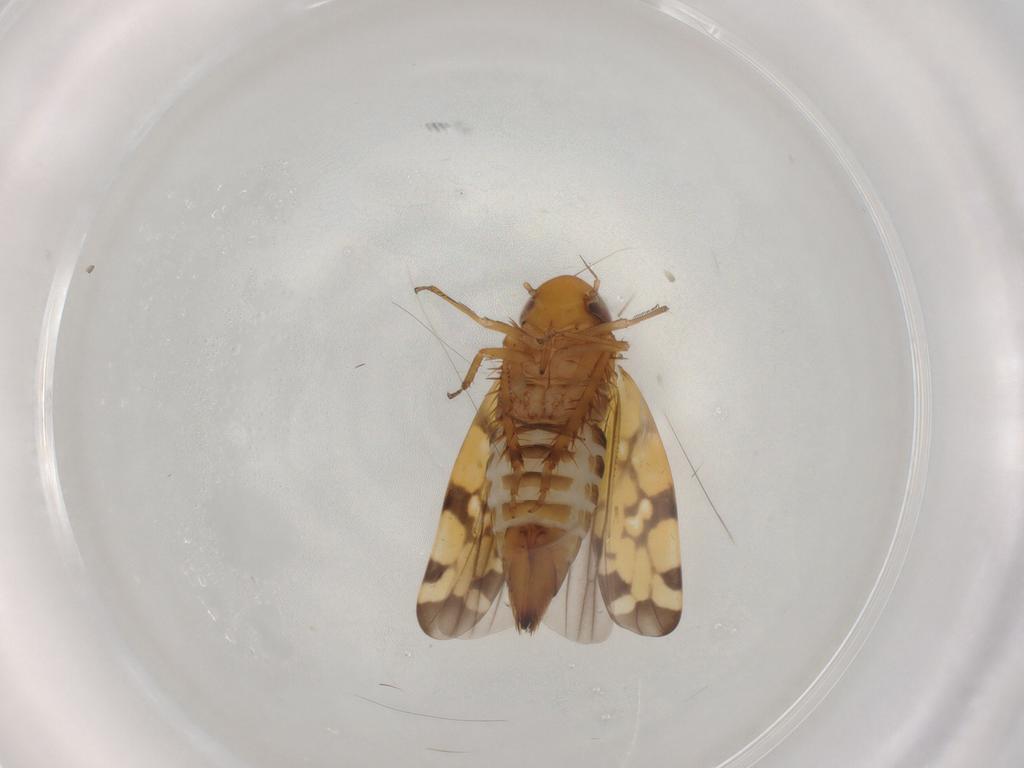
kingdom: Animalia
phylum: Arthropoda
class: Insecta
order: Hemiptera
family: Cicadellidae
